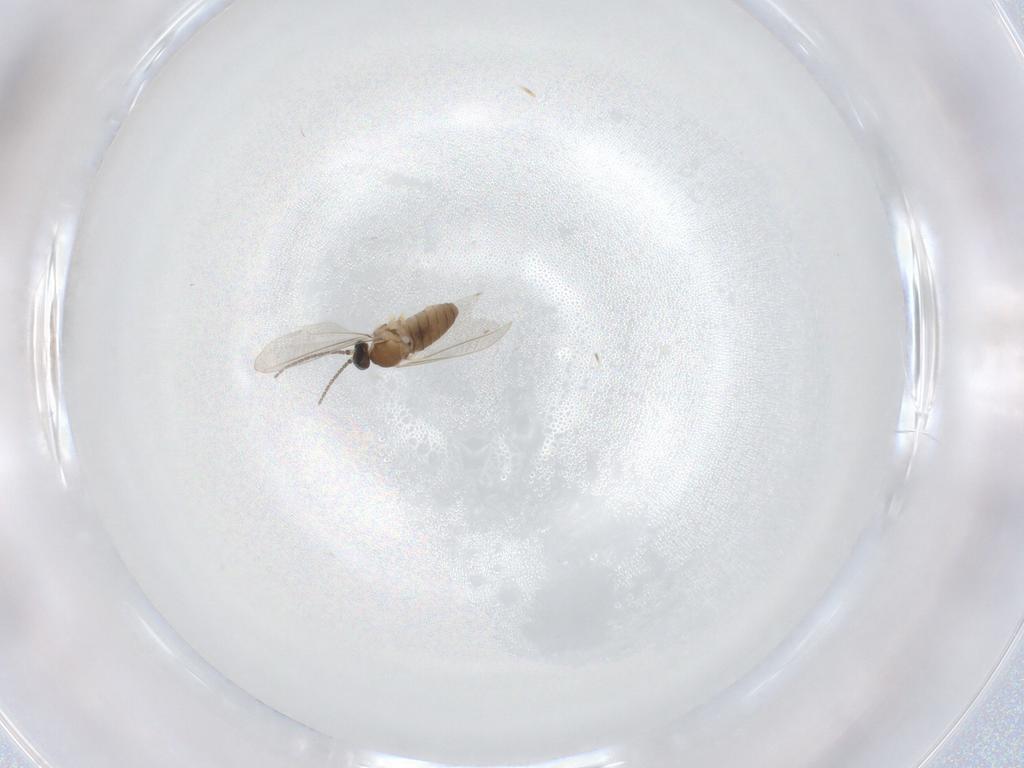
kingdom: Animalia
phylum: Arthropoda
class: Insecta
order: Diptera
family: Cecidomyiidae
